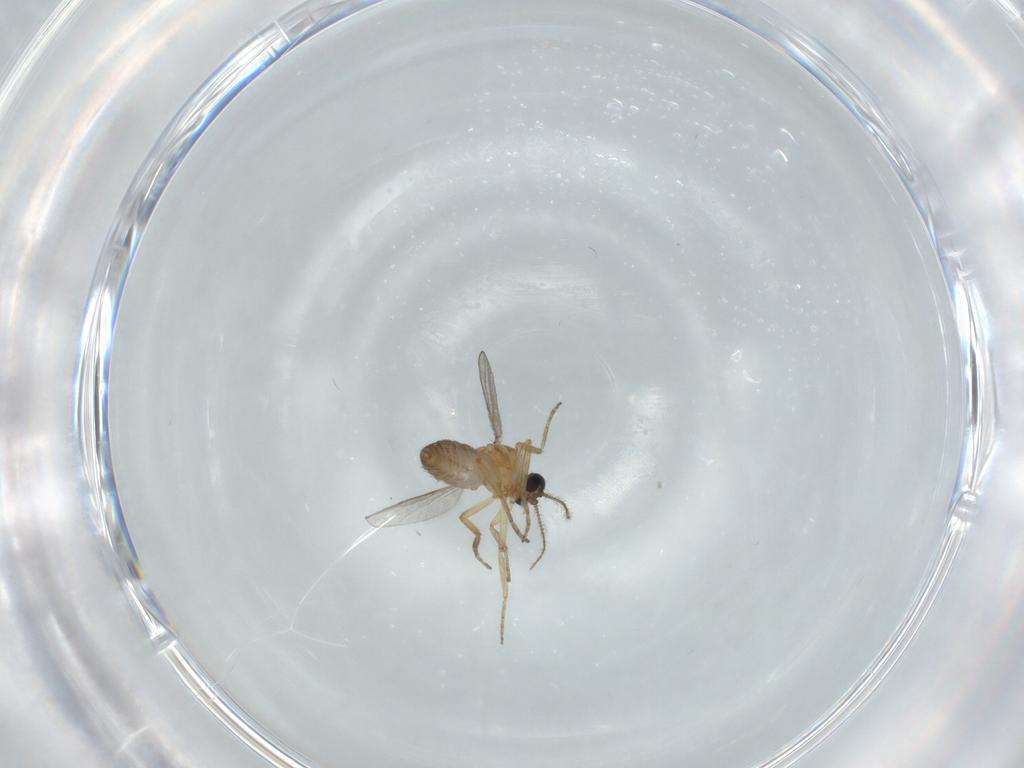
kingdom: Animalia
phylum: Arthropoda
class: Insecta
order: Diptera
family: Ceratopogonidae
